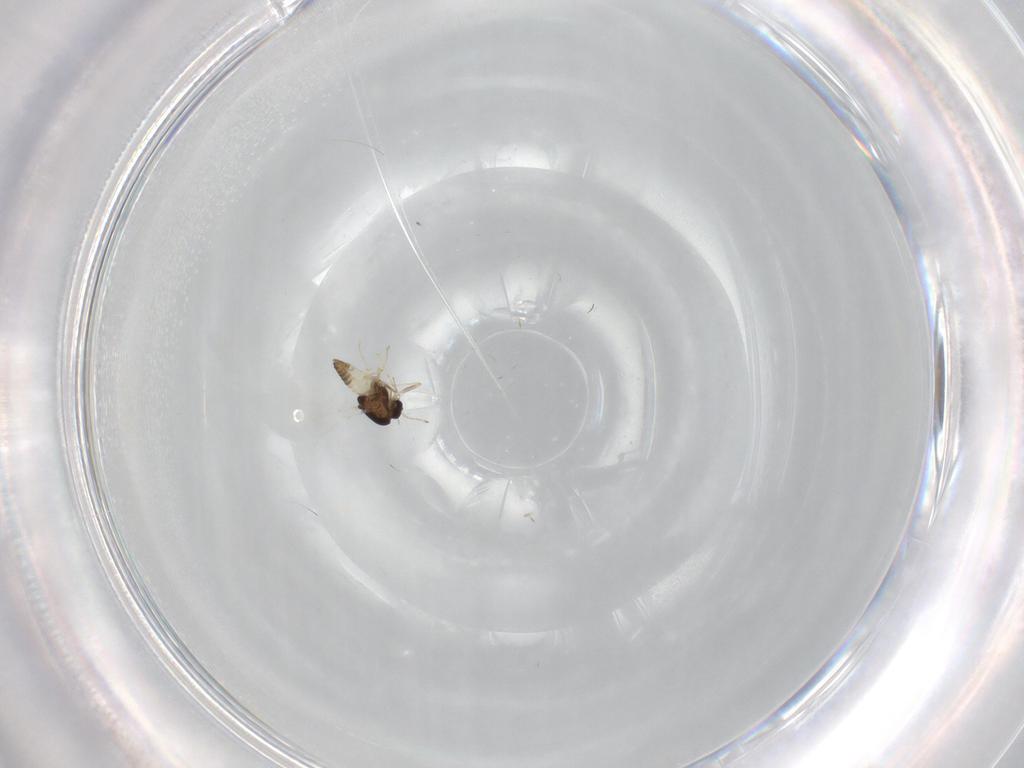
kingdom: Animalia
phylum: Arthropoda
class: Insecta
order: Diptera
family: Chironomidae
